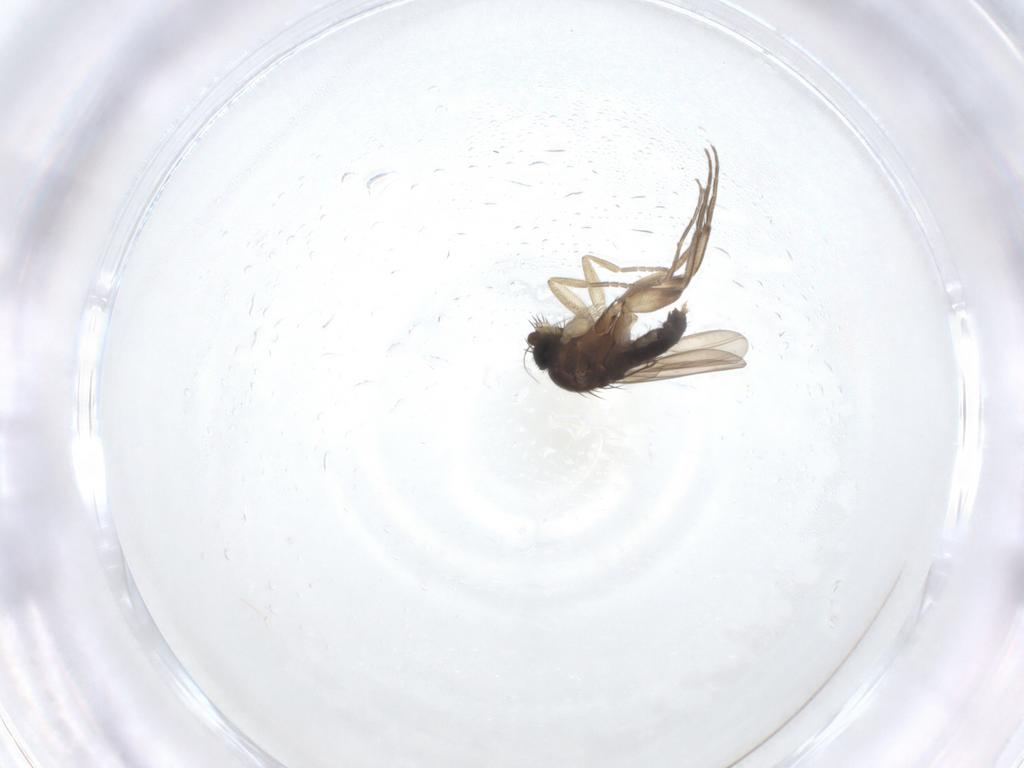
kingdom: Animalia
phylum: Arthropoda
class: Insecta
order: Diptera
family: Phoridae
